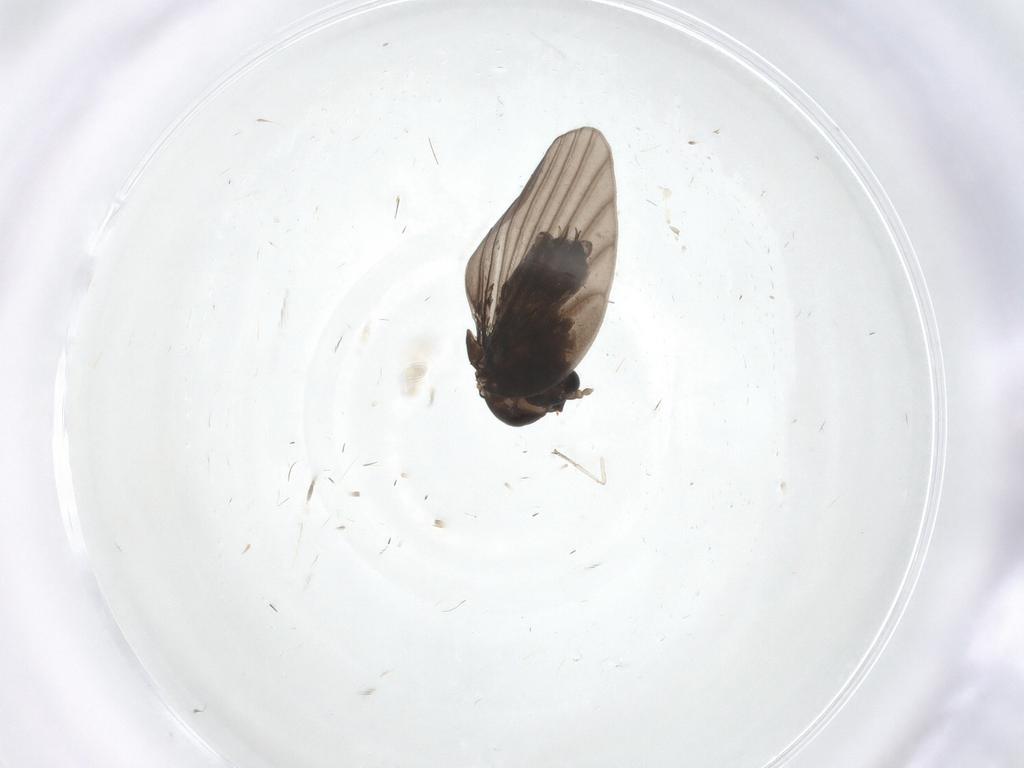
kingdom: Animalia
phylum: Arthropoda
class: Insecta
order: Diptera
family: Psychodidae
